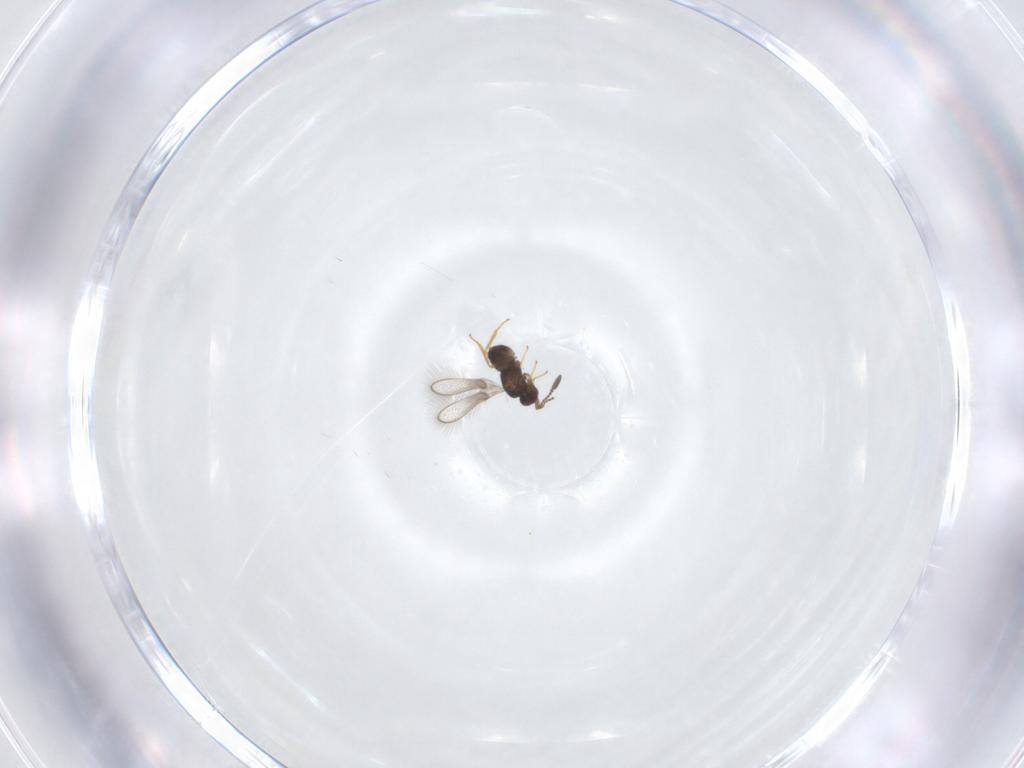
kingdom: Animalia
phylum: Arthropoda
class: Insecta
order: Hymenoptera
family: Mymaridae
